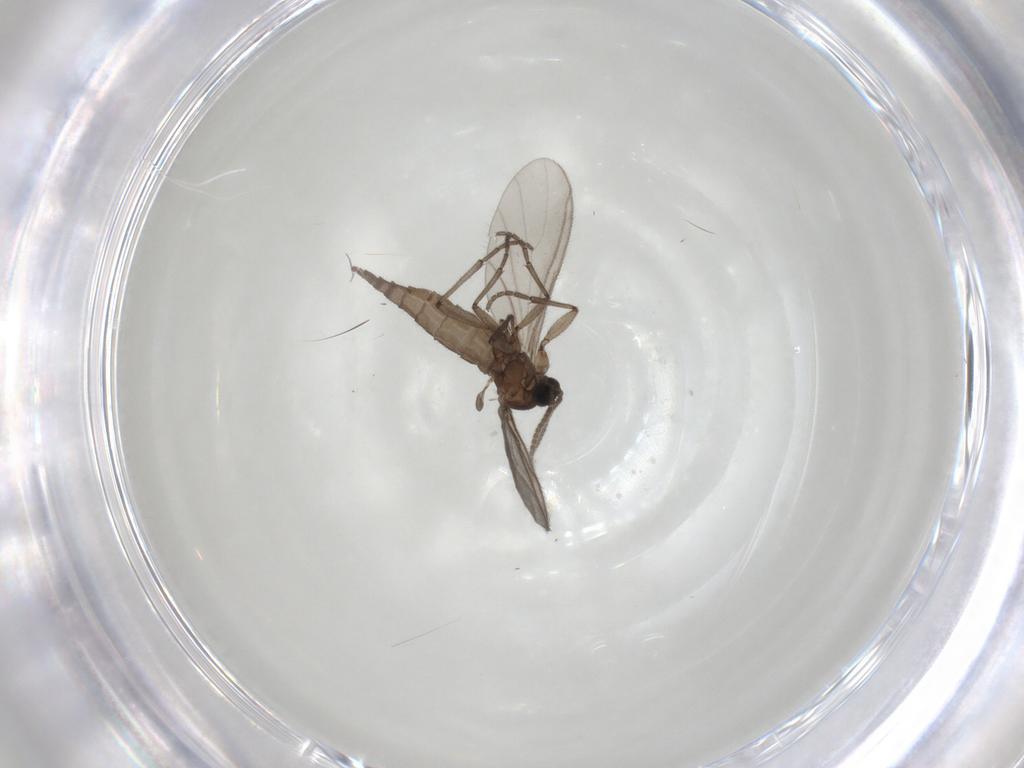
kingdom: Animalia
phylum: Arthropoda
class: Insecta
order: Diptera
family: Sciaridae
